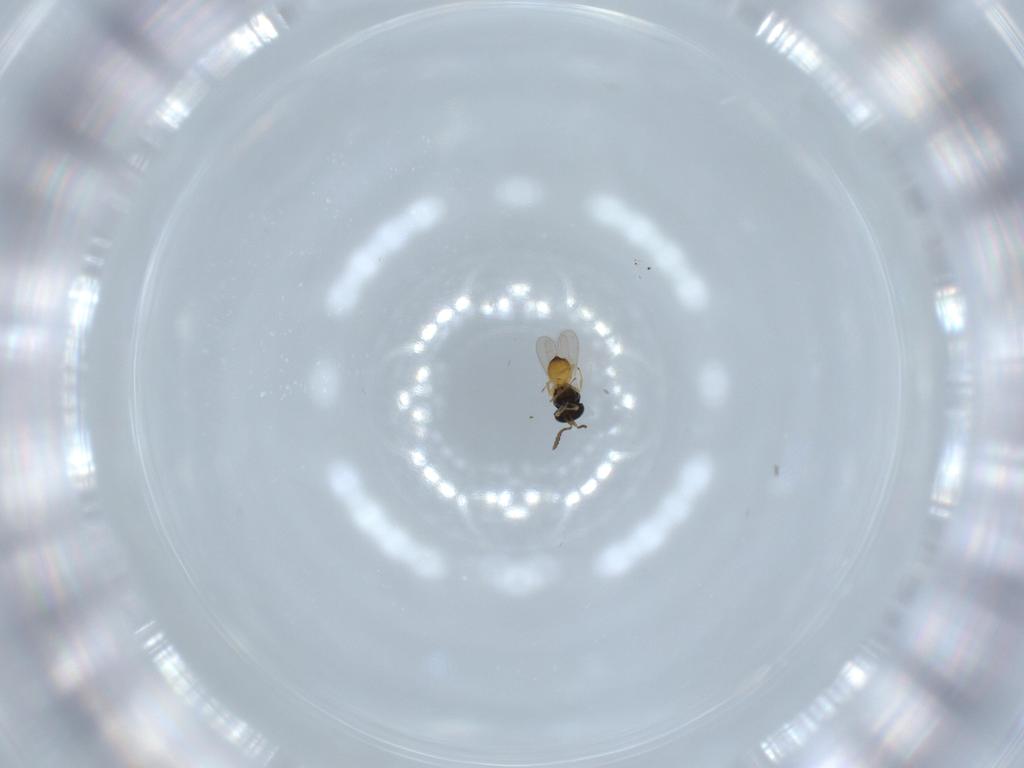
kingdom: Animalia
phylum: Arthropoda
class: Insecta
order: Hymenoptera
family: Scelionidae
